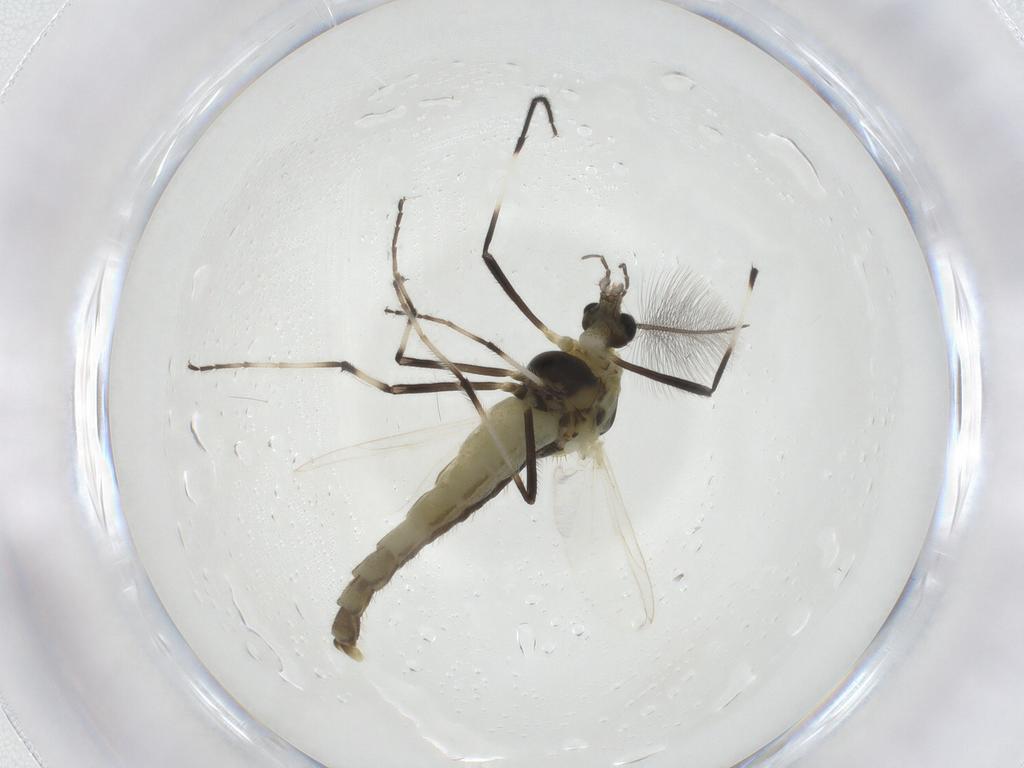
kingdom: Animalia
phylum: Arthropoda
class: Insecta
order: Diptera
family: Chironomidae
